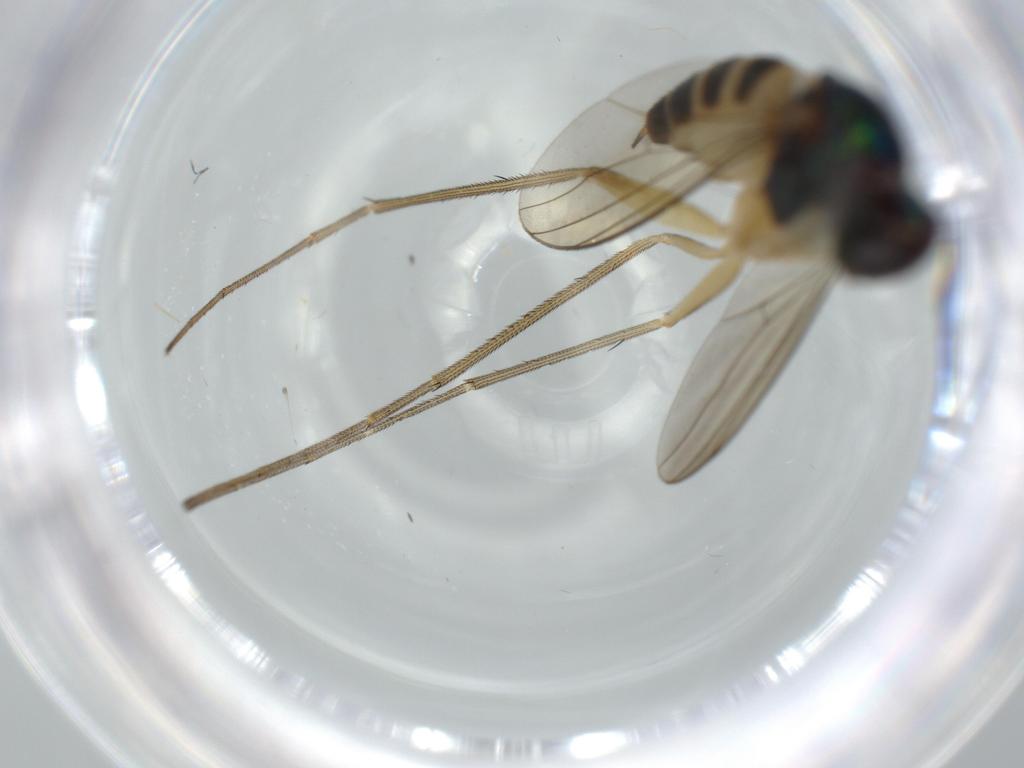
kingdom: Animalia
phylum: Arthropoda
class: Insecta
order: Diptera
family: Dolichopodidae
